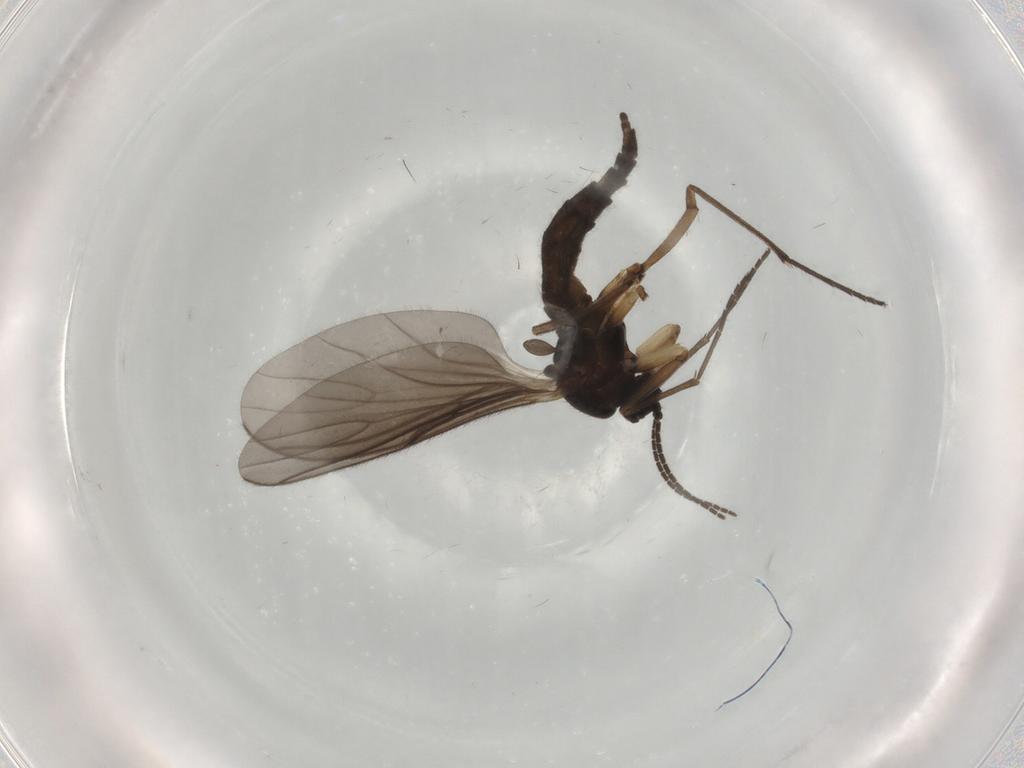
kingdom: Animalia
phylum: Arthropoda
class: Insecta
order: Diptera
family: Sciaridae
